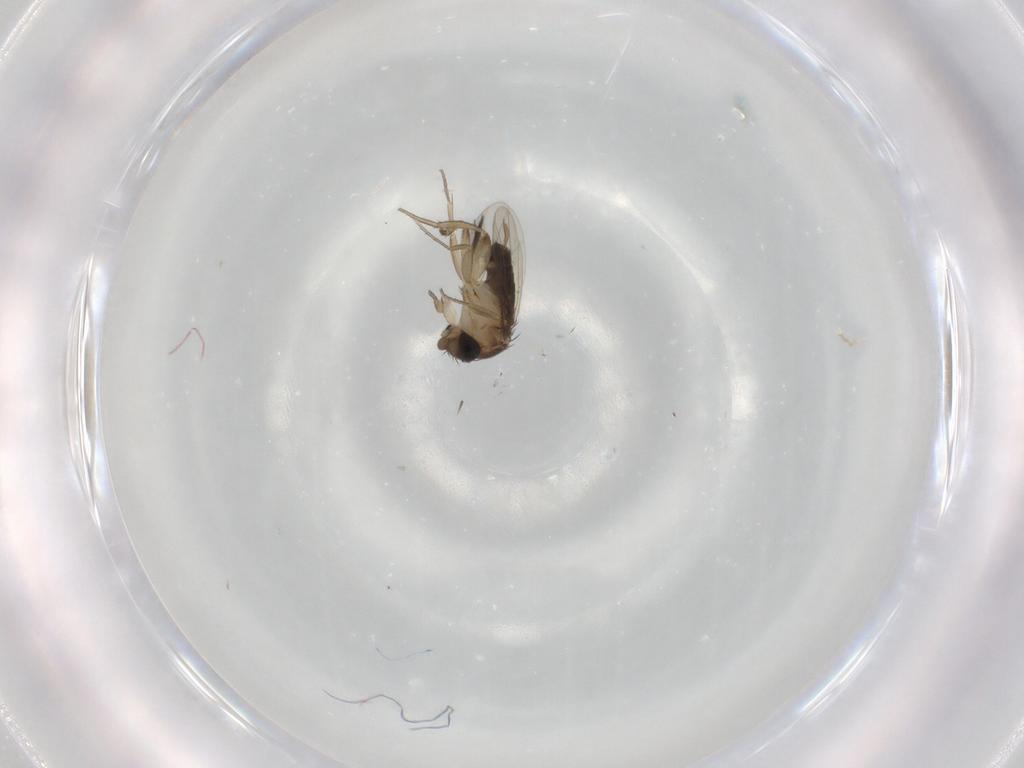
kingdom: Animalia
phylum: Arthropoda
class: Insecta
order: Diptera
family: Ceratopogonidae
